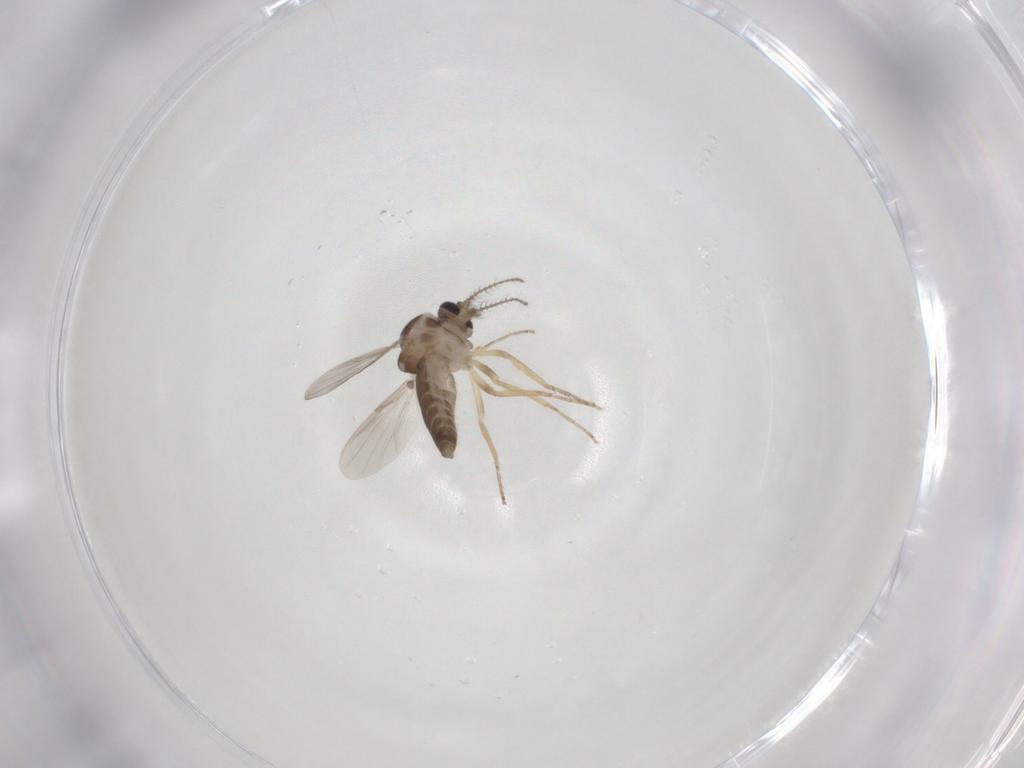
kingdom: Animalia
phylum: Arthropoda
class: Insecta
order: Diptera
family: Ceratopogonidae
